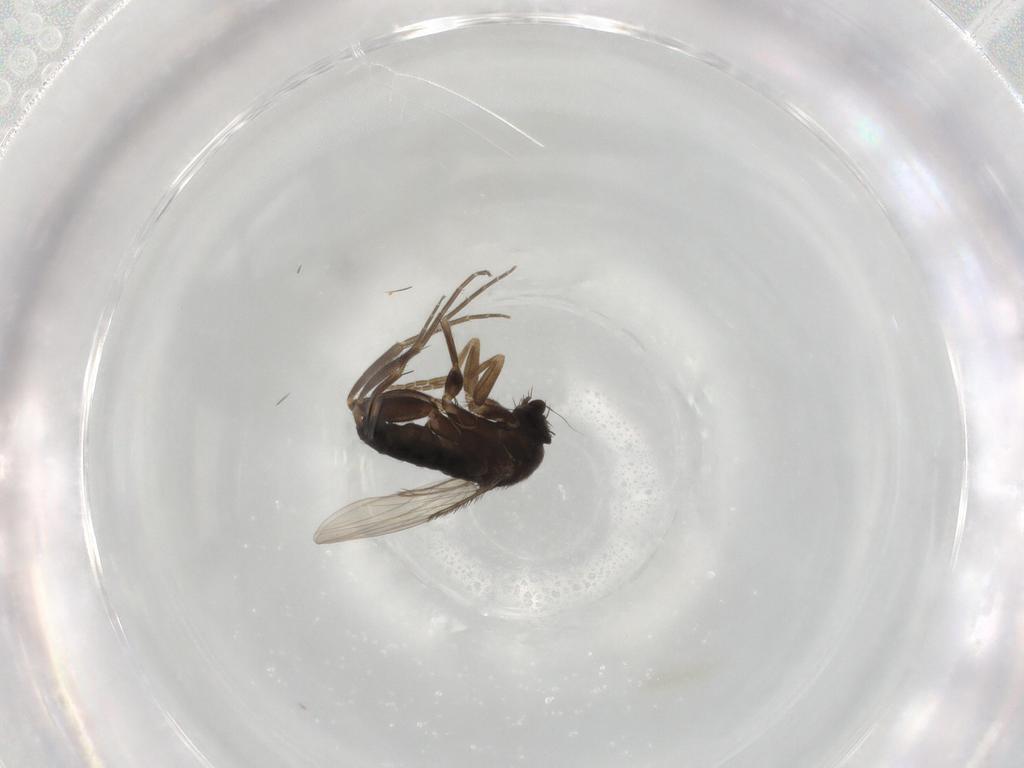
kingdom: Animalia
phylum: Arthropoda
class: Insecta
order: Diptera
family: Phoridae
